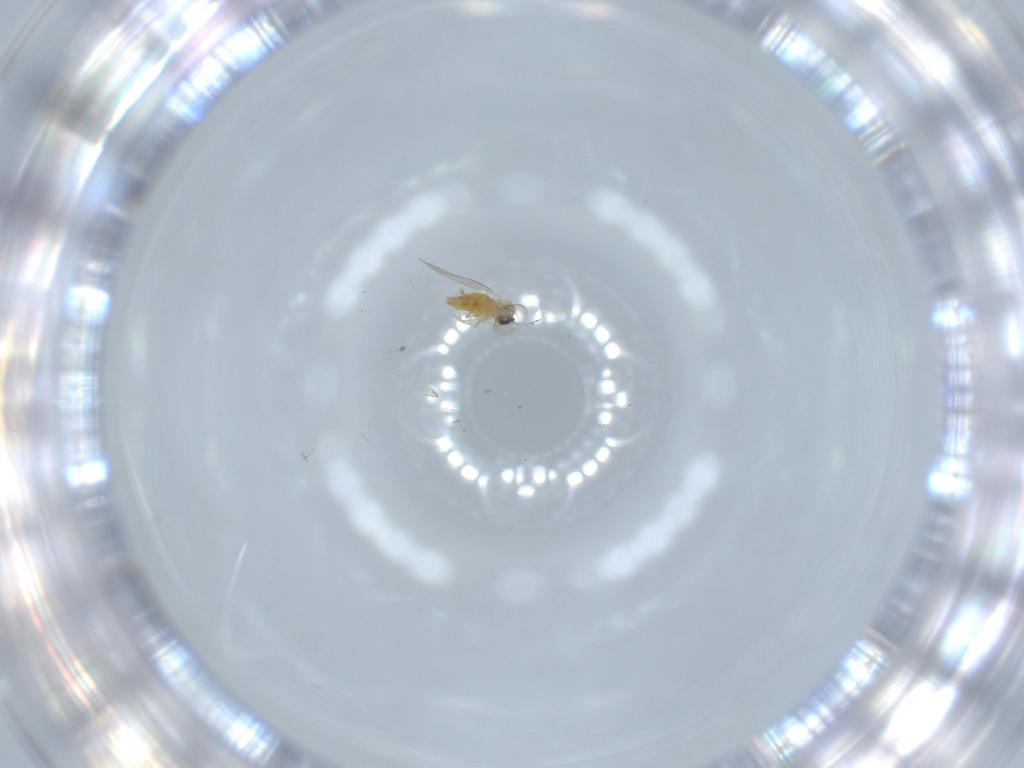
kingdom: Animalia
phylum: Arthropoda
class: Insecta
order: Diptera
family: Cecidomyiidae
